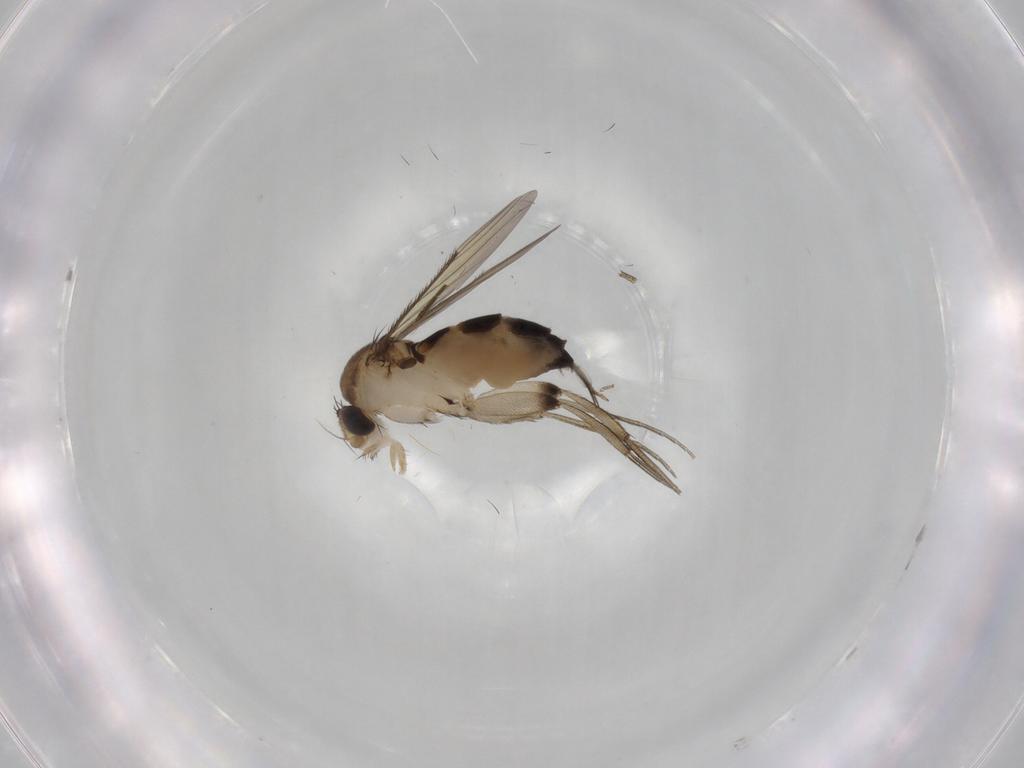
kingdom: Animalia
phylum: Arthropoda
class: Insecta
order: Diptera
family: Phoridae
